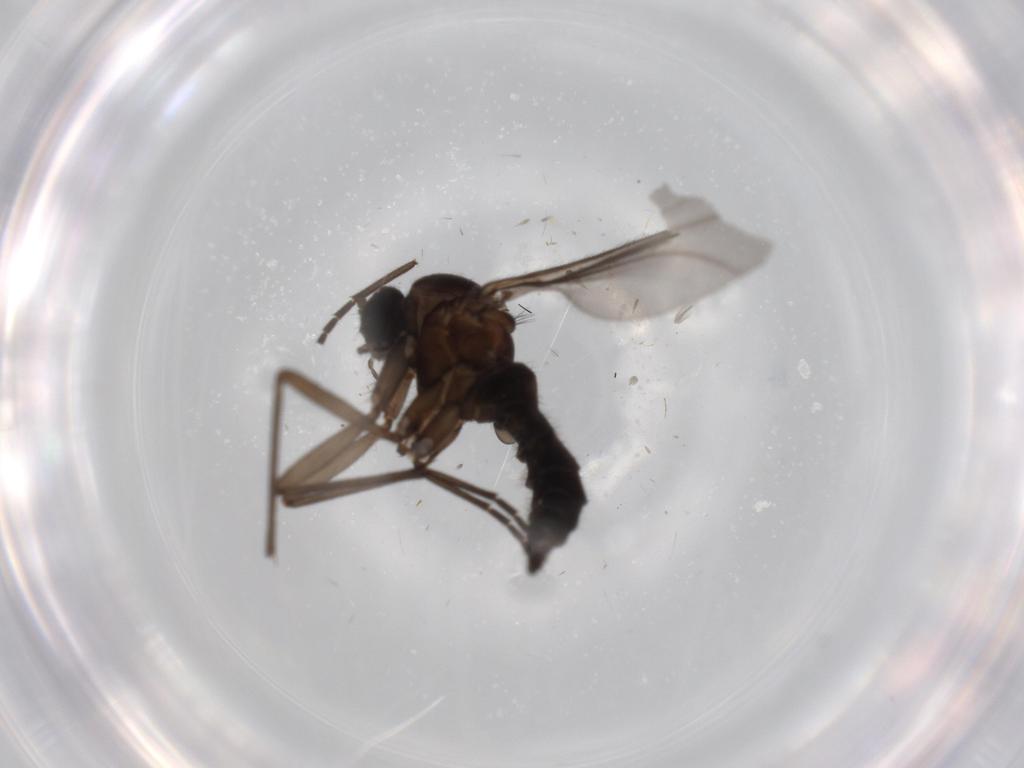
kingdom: Animalia
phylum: Arthropoda
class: Insecta
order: Diptera
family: Sciaridae
